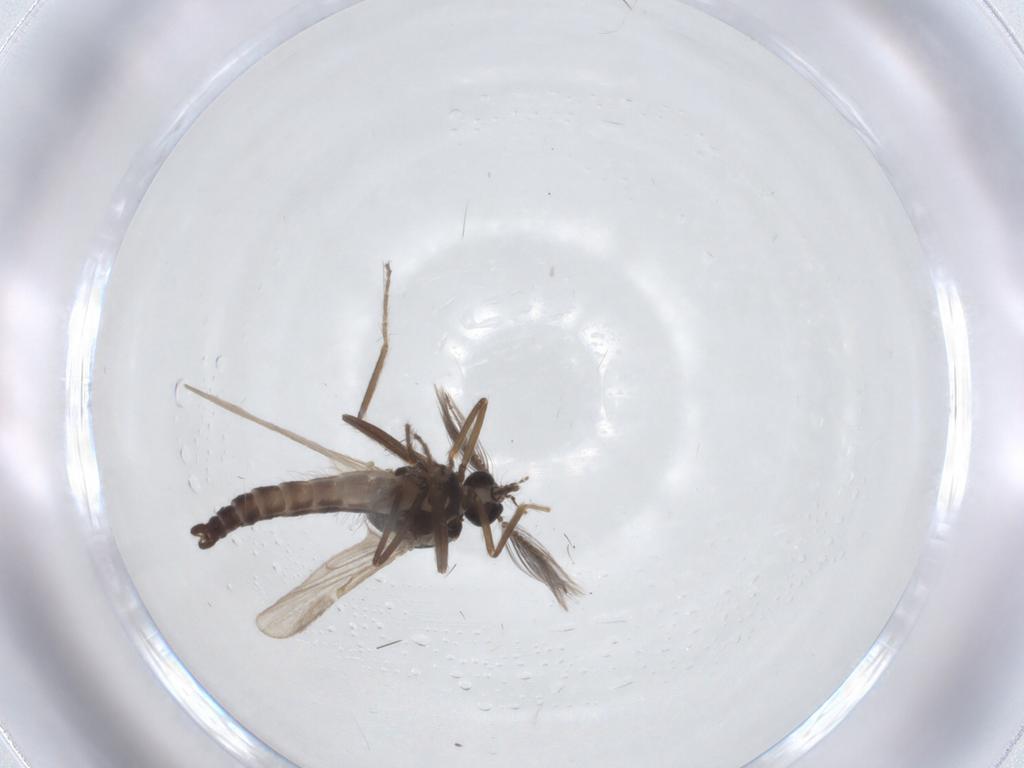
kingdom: Animalia
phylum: Arthropoda
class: Insecta
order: Diptera
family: Ceratopogonidae
